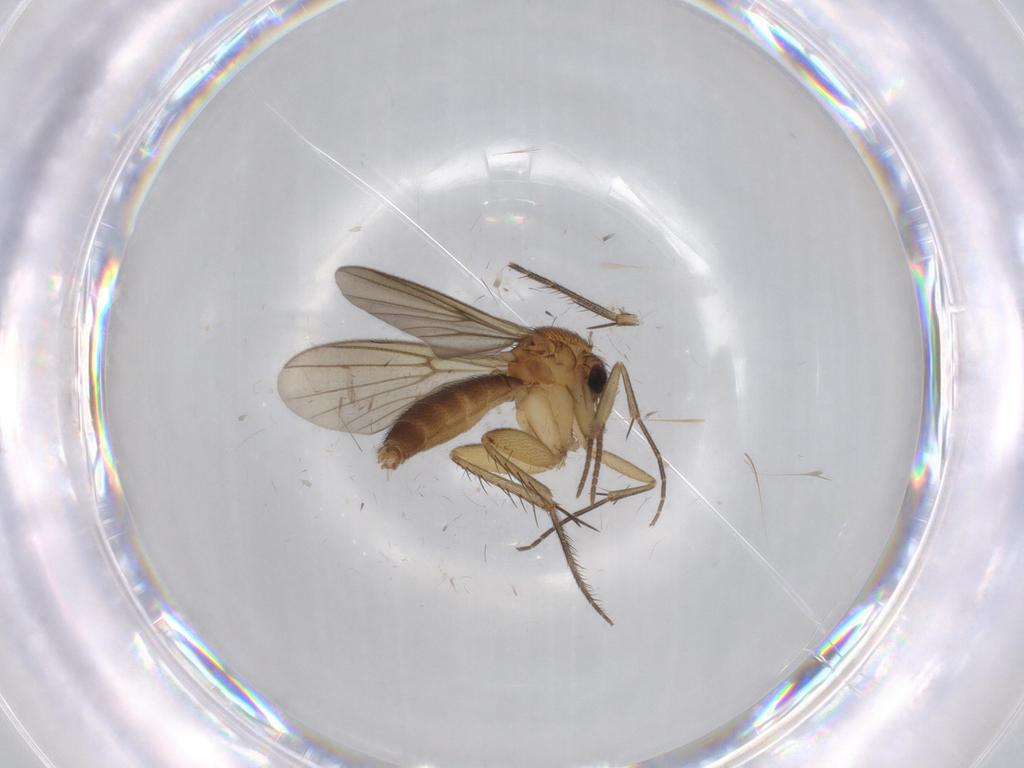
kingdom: Animalia
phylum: Arthropoda
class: Insecta
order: Diptera
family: Mycetophilidae
